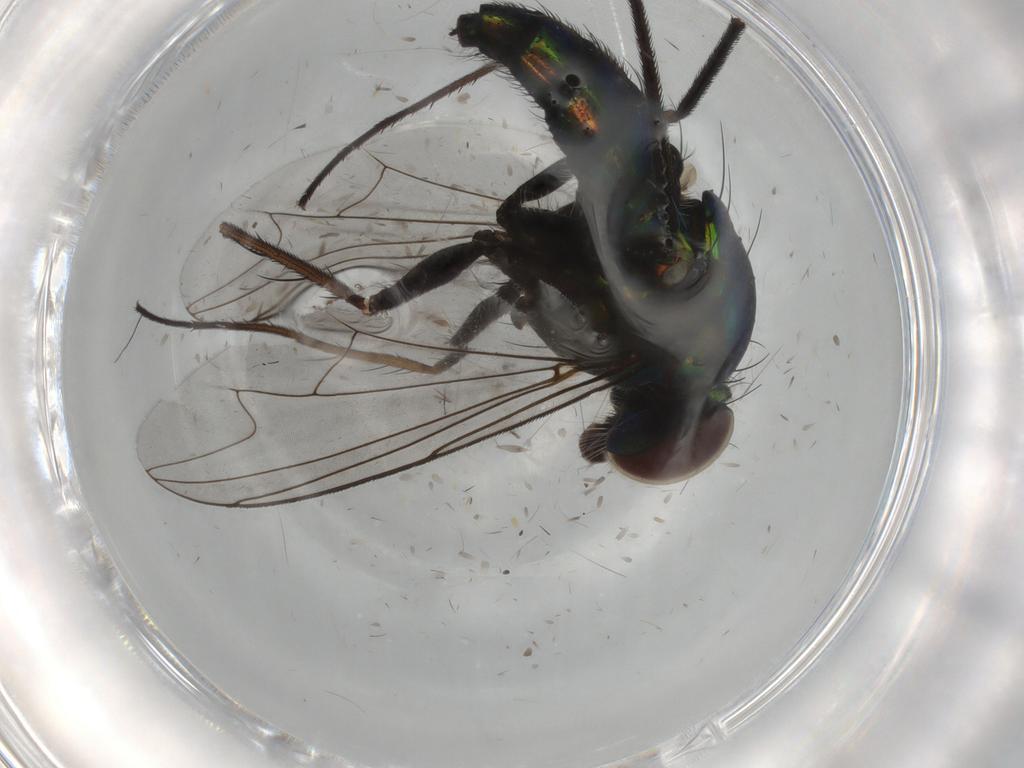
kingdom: Animalia
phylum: Arthropoda
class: Insecta
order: Diptera
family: Dolichopodidae
